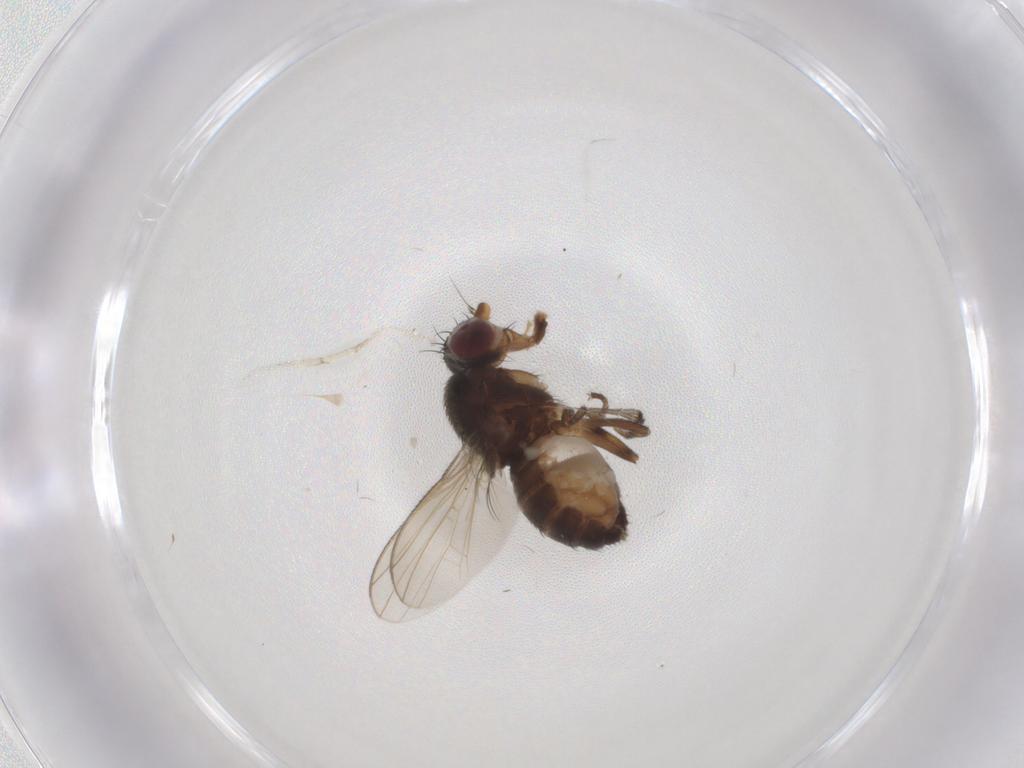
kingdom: Animalia
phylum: Arthropoda
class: Insecta
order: Diptera
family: Heleomyzidae
